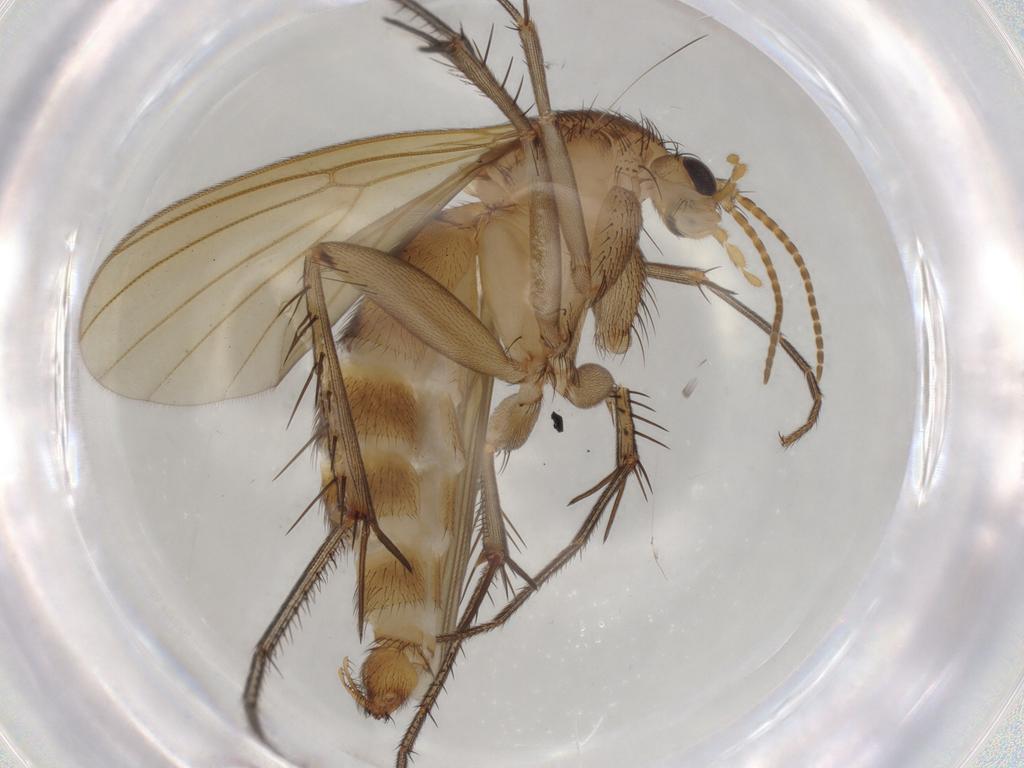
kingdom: Animalia
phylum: Arthropoda
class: Insecta
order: Diptera
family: Mycetophilidae
